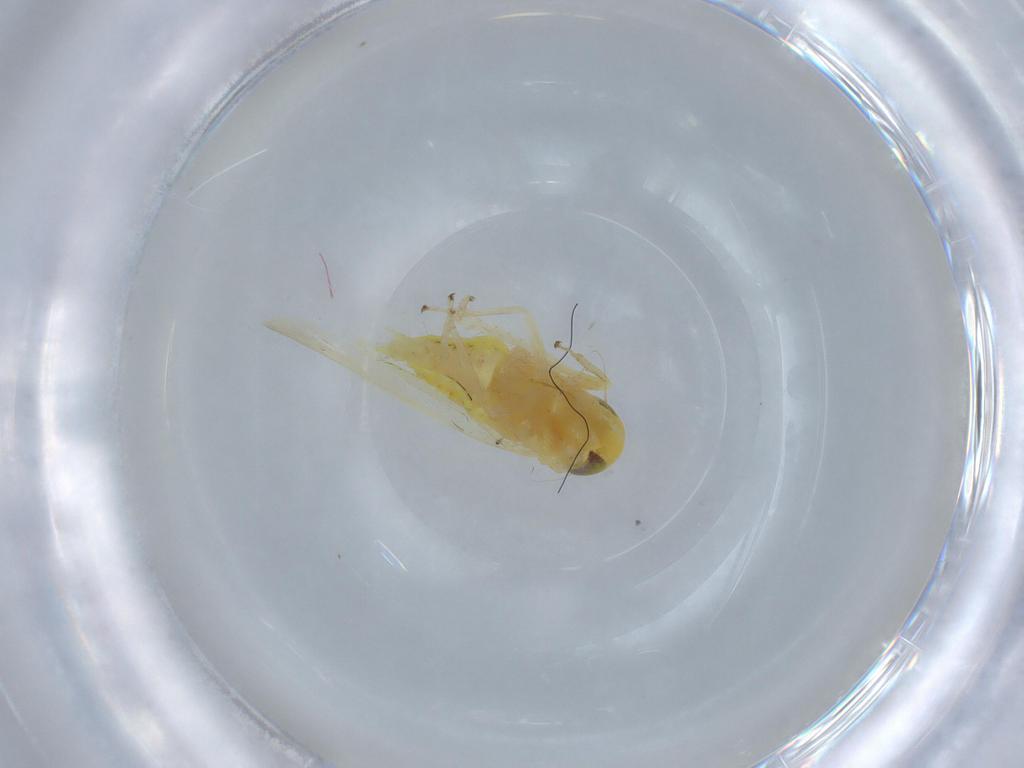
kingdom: Animalia
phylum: Arthropoda
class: Insecta
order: Hemiptera
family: Cicadellidae
